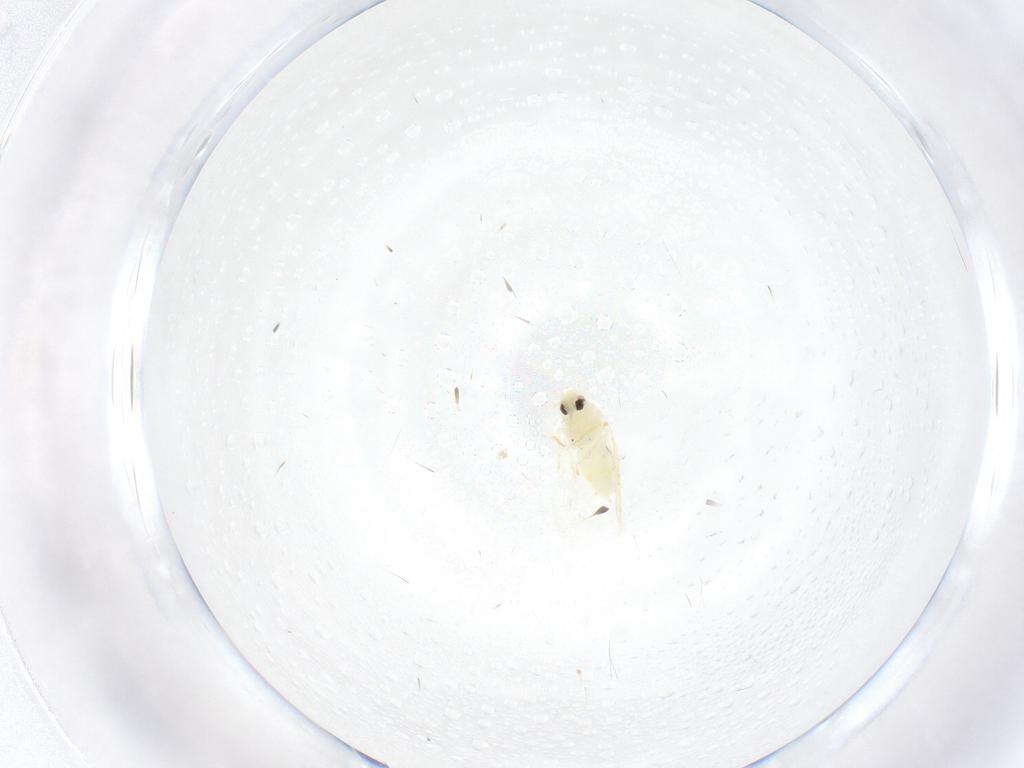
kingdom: Animalia
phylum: Arthropoda
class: Insecta
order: Hemiptera
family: Aleyrodidae
